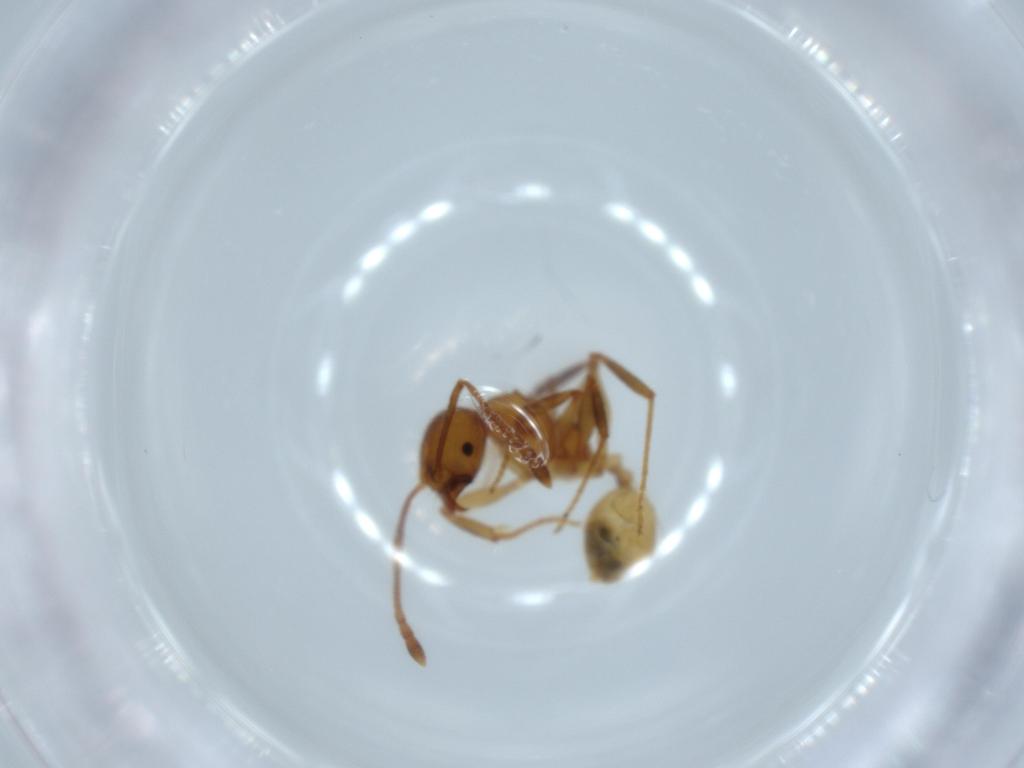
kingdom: Animalia
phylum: Arthropoda
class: Insecta
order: Hymenoptera
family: Formicidae
